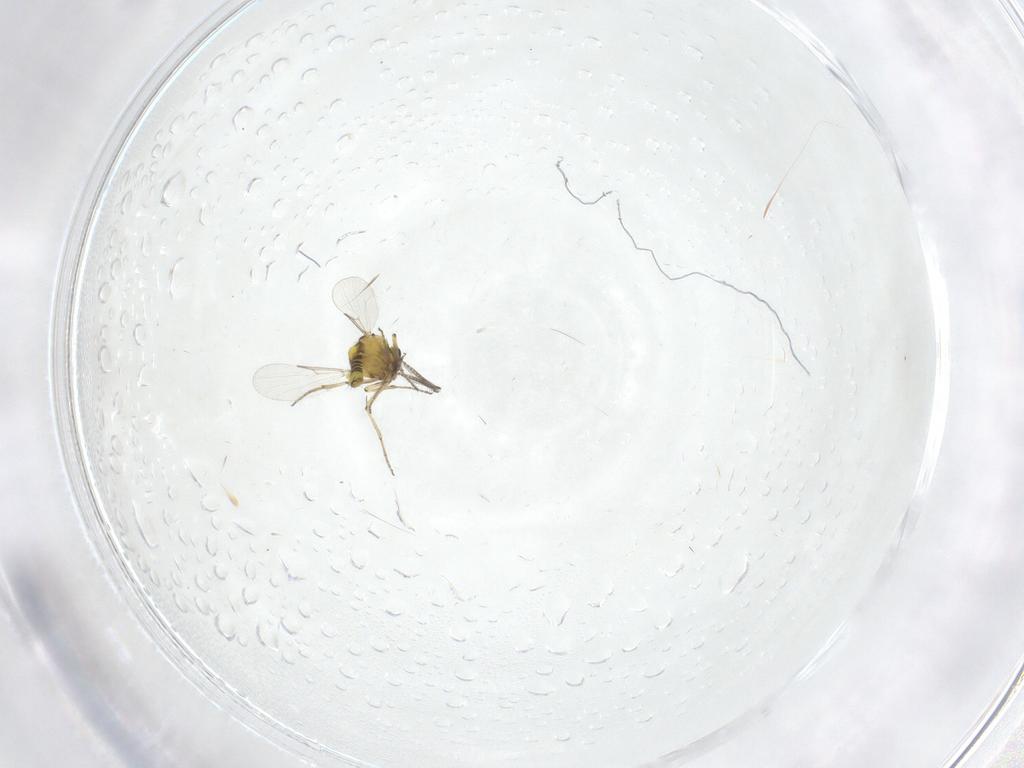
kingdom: Animalia
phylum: Arthropoda
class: Insecta
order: Diptera
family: Ceratopogonidae
